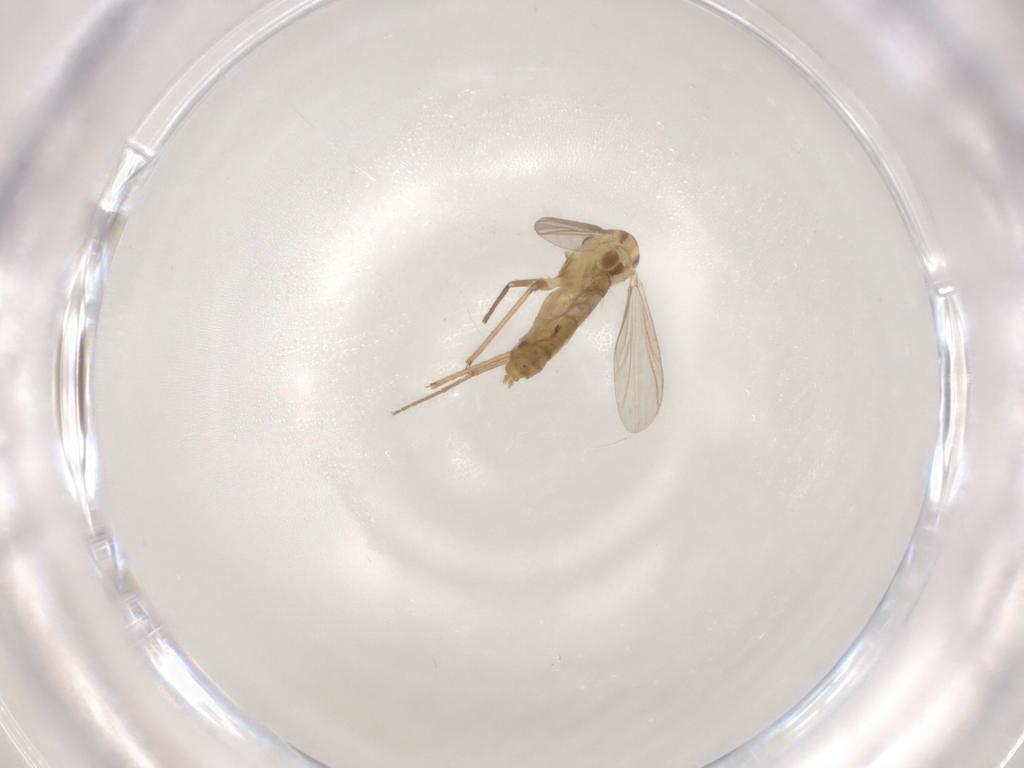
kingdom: Animalia
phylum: Arthropoda
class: Insecta
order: Diptera
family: Chironomidae
